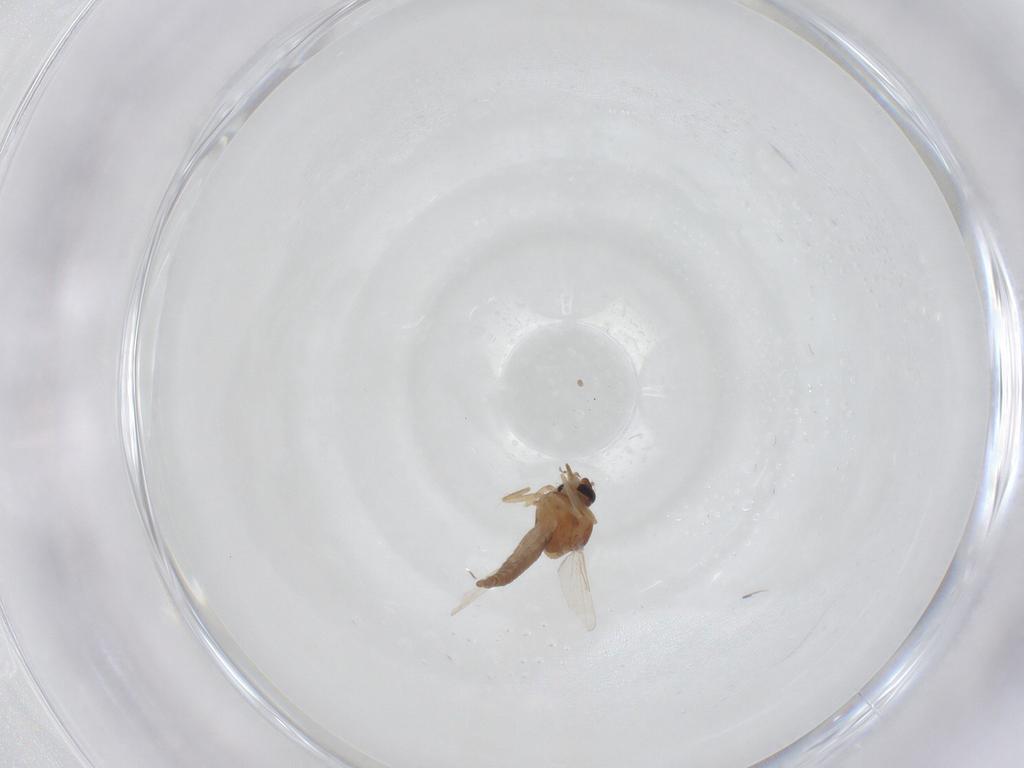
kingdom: Animalia
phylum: Arthropoda
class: Insecta
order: Diptera
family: Ceratopogonidae
